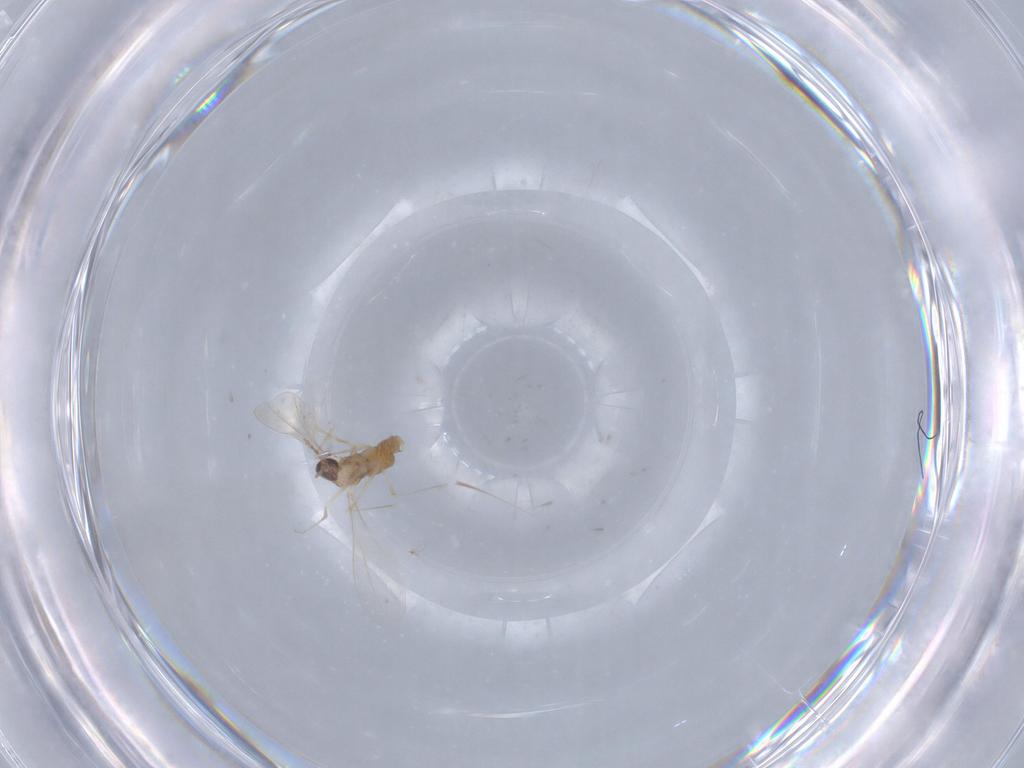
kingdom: Animalia
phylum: Arthropoda
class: Insecta
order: Diptera
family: Cecidomyiidae
